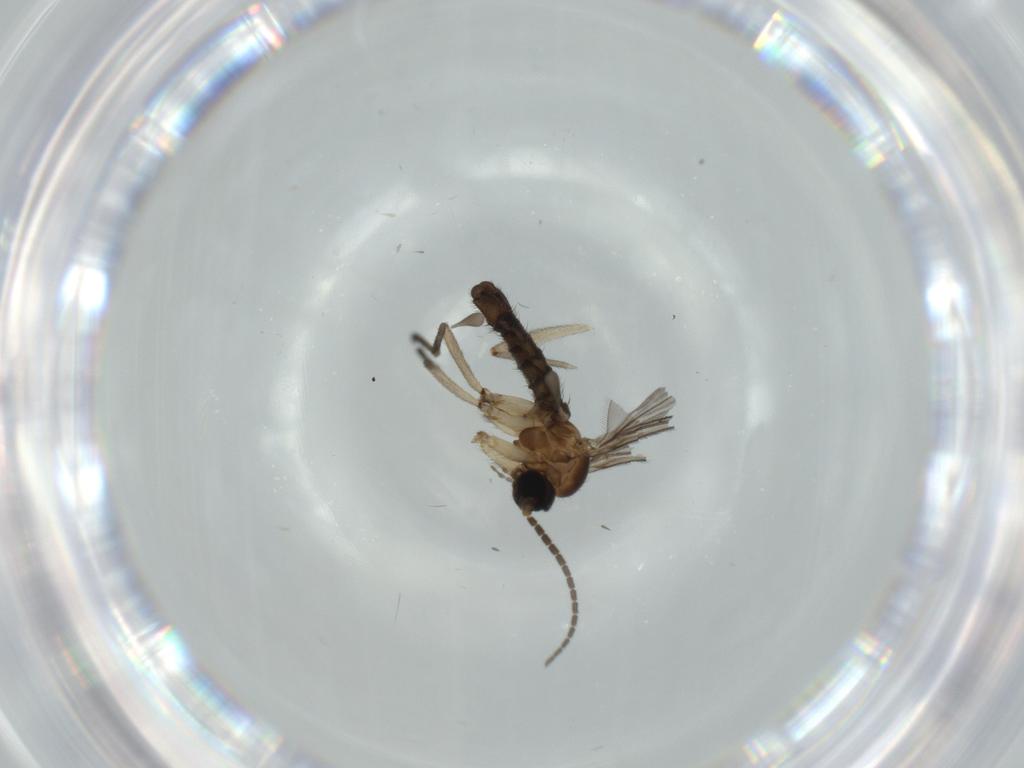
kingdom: Animalia
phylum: Arthropoda
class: Insecta
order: Diptera
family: Sciaridae
